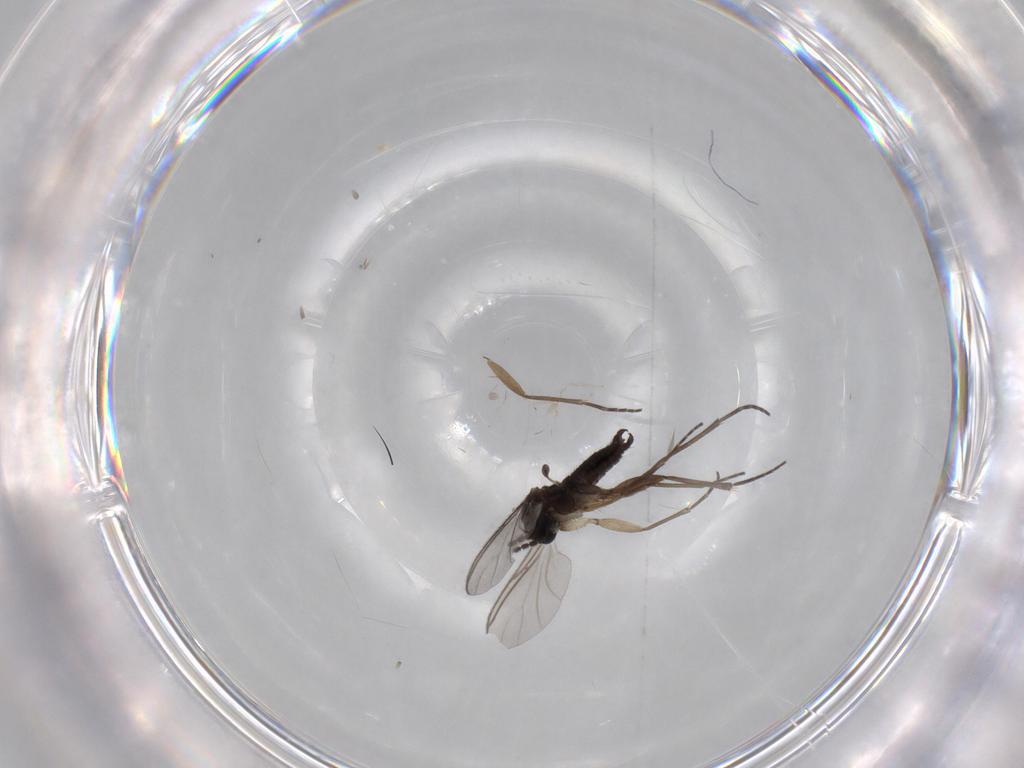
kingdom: Animalia
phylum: Arthropoda
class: Insecta
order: Diptera
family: Sciaridae
